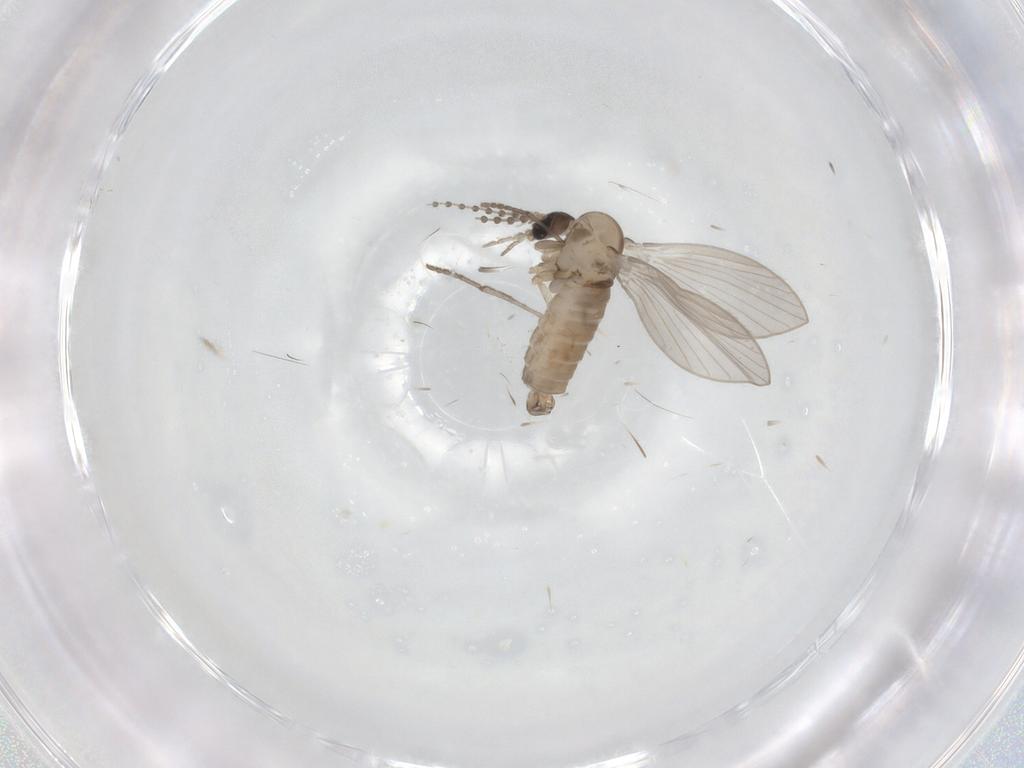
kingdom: Animalia
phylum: Arthropoda
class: Insecta
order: Diptera
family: Psychodidae
